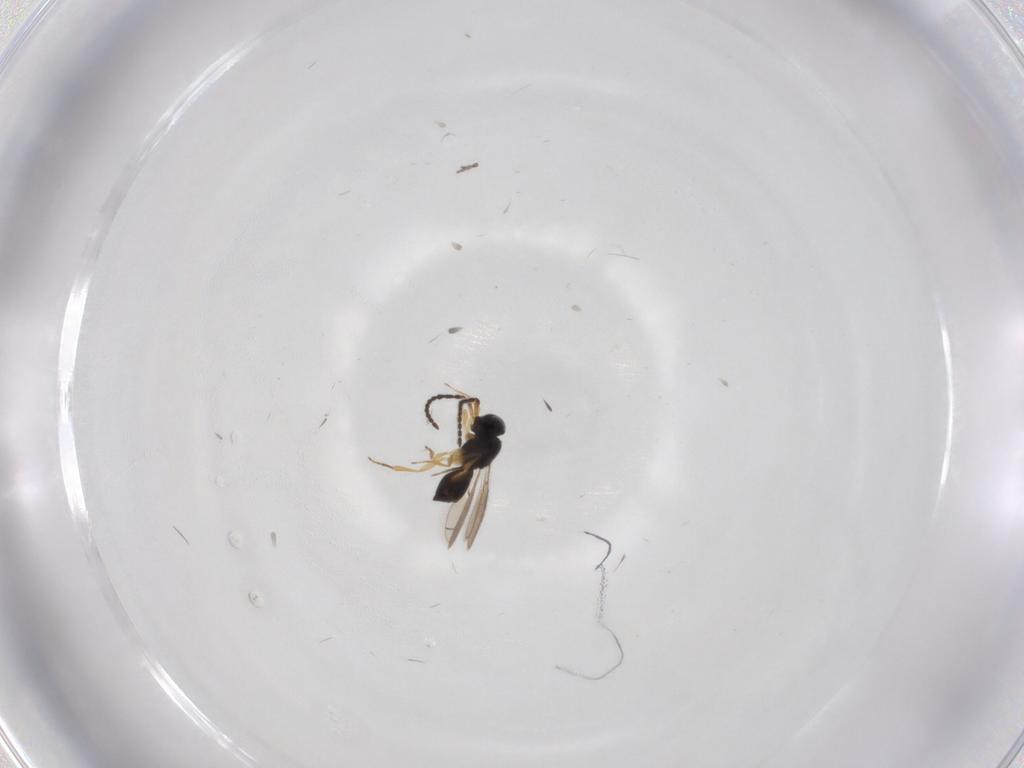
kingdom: Animalia
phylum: Arthropoda
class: Insecta
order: Hymenoptera
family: Scelionidae
